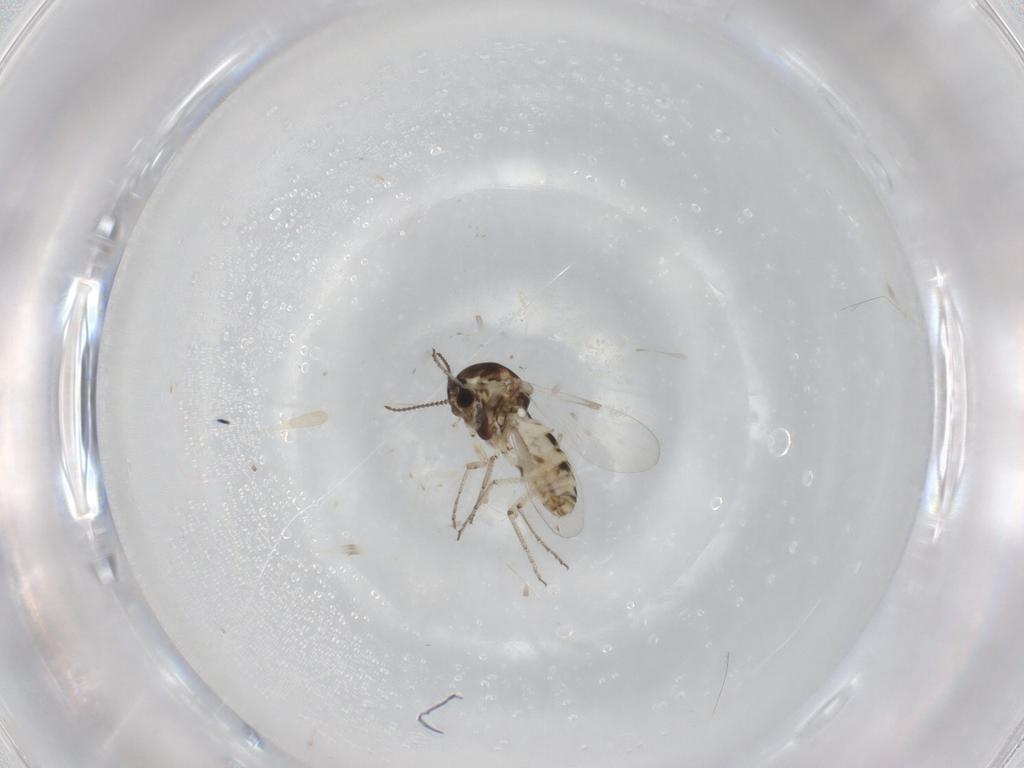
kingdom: Animalia
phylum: Arthropoda
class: Insecta
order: Diptera
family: Ceratopogonidae
